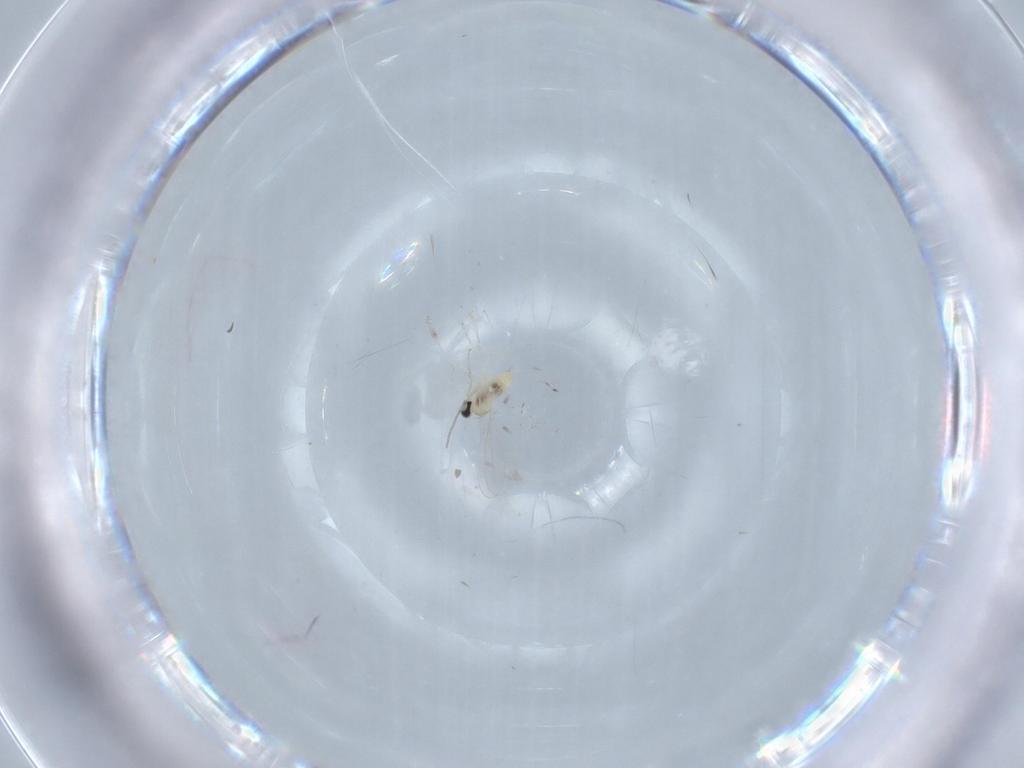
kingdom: Animalia
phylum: Arthropoda
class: Insecta
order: Diptera
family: Cecidomyiidae
